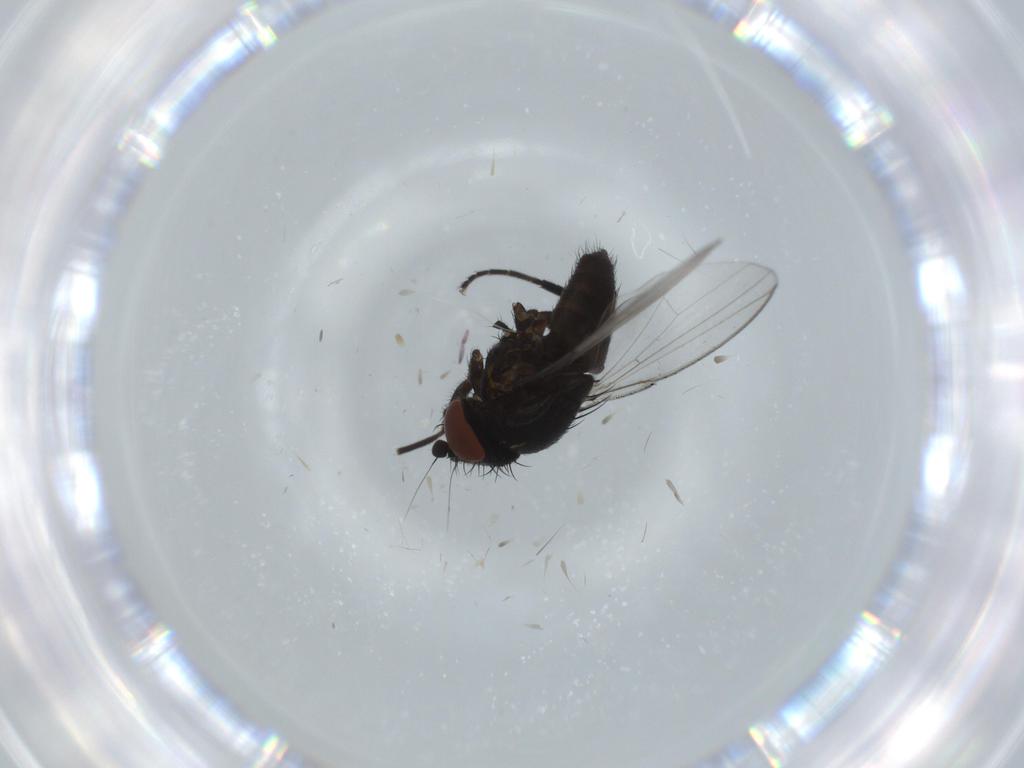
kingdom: Animalia
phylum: Arthropoda
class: Insecta
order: Diptera
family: Milichiidae
